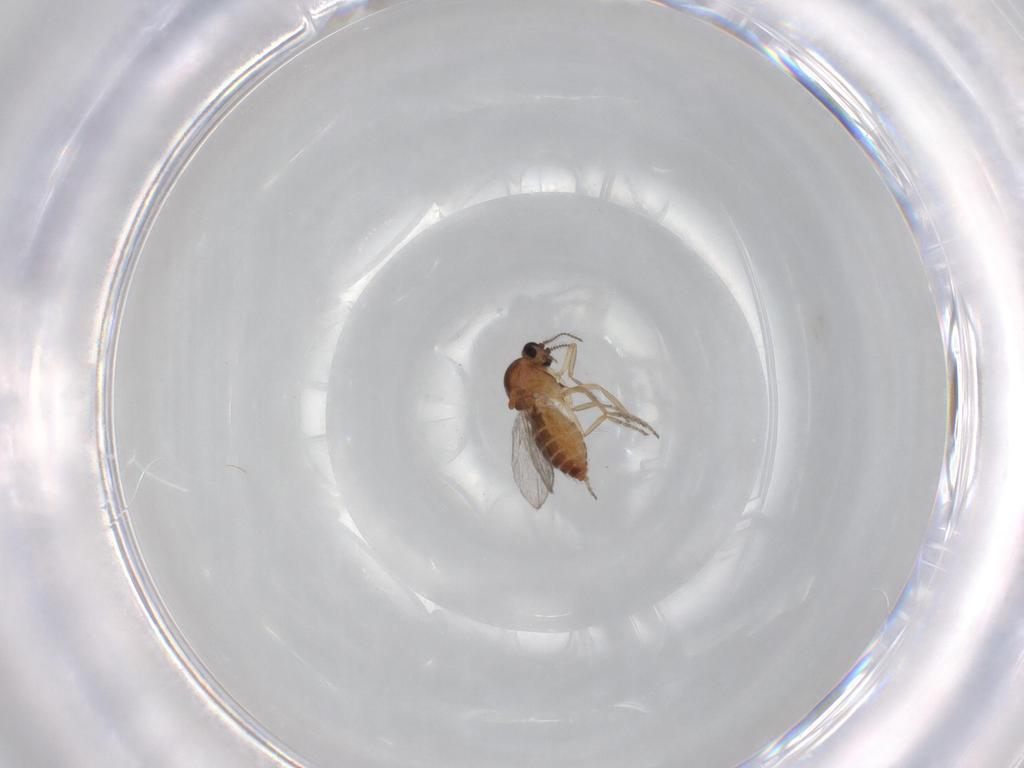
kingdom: Animalia
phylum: Arthropoda
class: Insecta
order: Diptera
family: Ceratopogonidae
